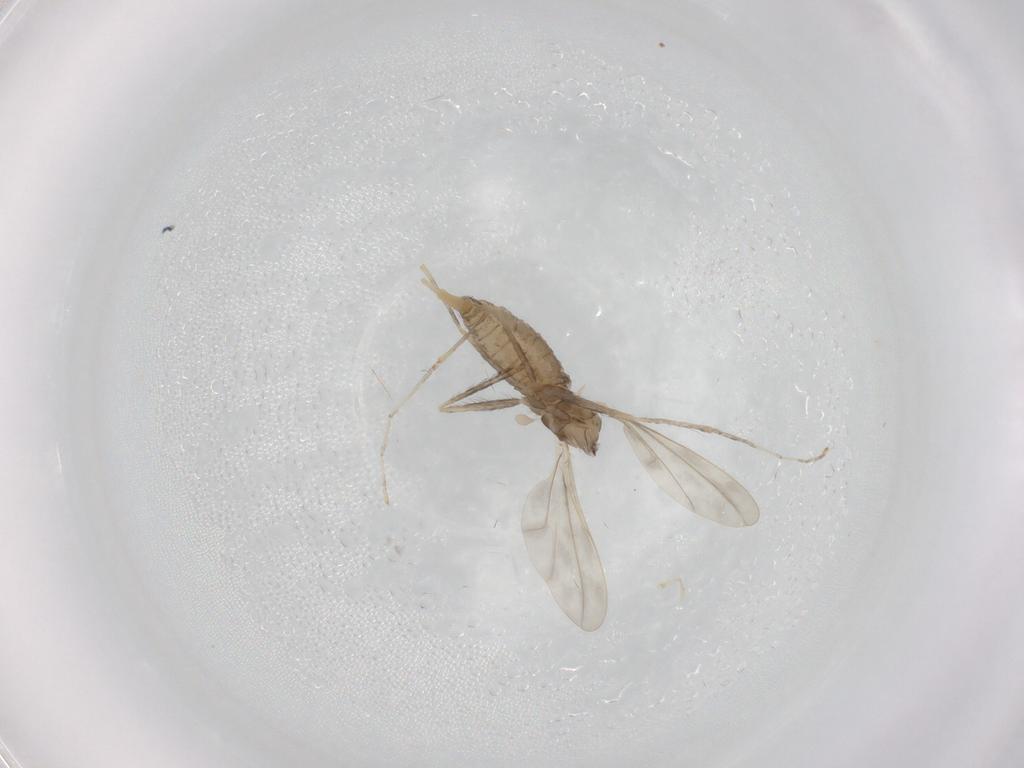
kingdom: Animalia
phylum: Arthropoda
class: Insecta
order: Diptera
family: Cecidomyiidae
